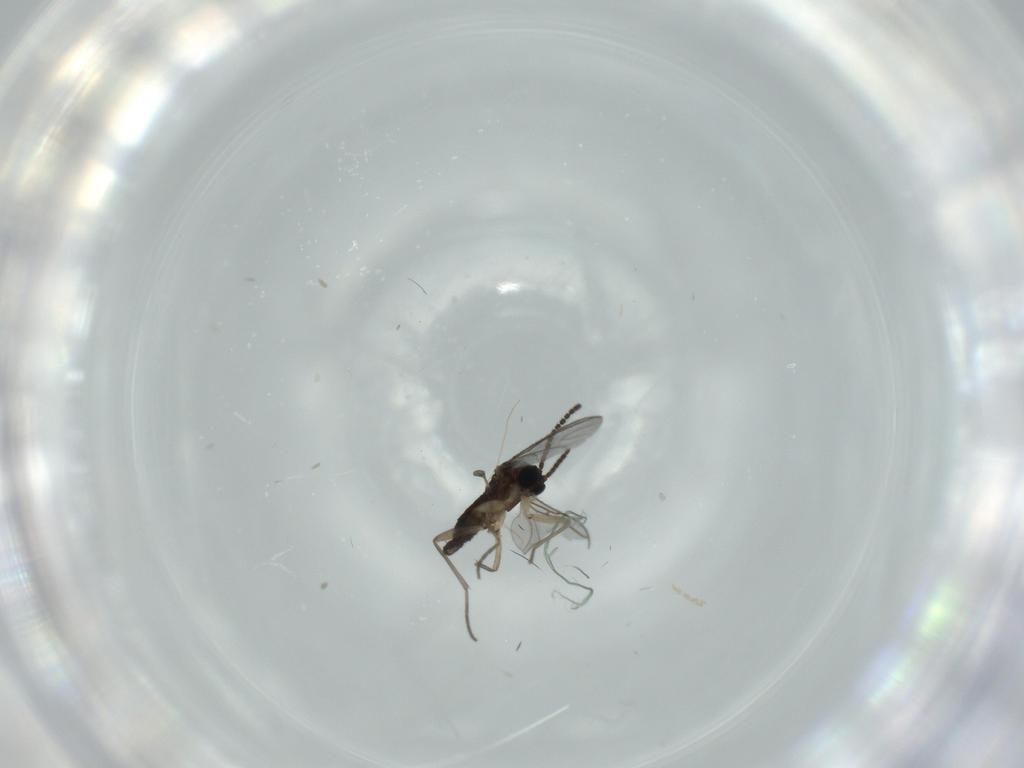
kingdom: Animalia
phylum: Arthropoda
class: Insecta
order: Diptera
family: Sciaridae
